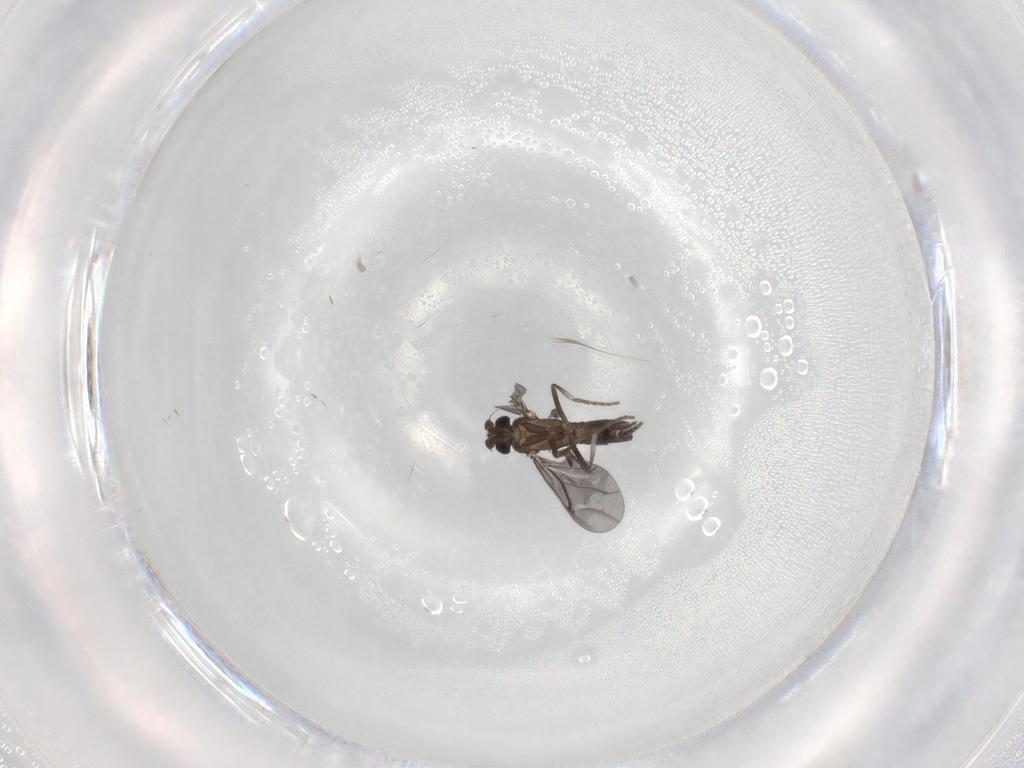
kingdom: Animalia
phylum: Arthropoda
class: Insecta
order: Diptera
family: Phoridae
